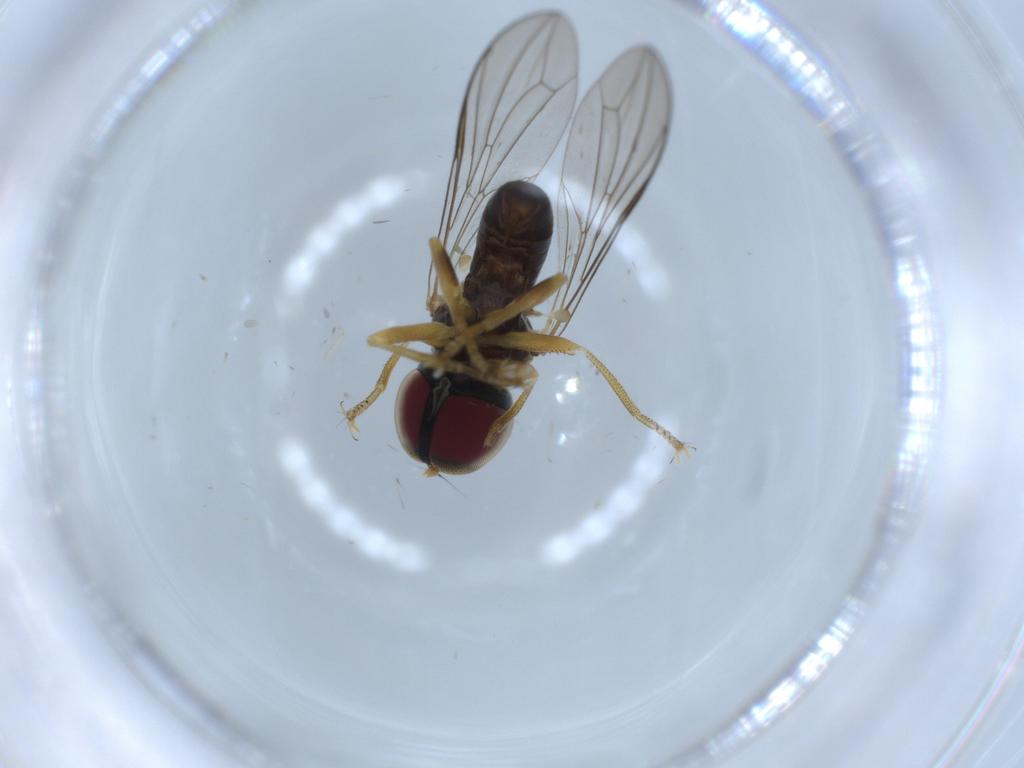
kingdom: Animalia
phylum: Arthropoda
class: Insecta
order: Diptera
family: Pipunculidae
